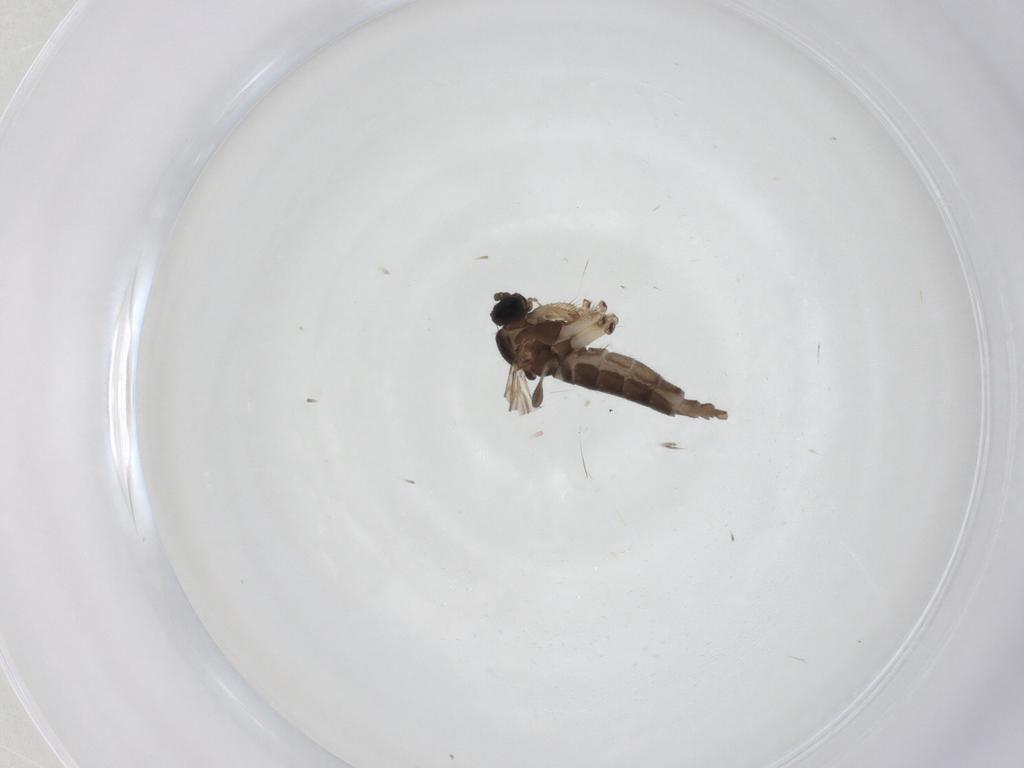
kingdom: Animalia
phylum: Arthropoda
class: Insecta
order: Diptera
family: Sciaridae
